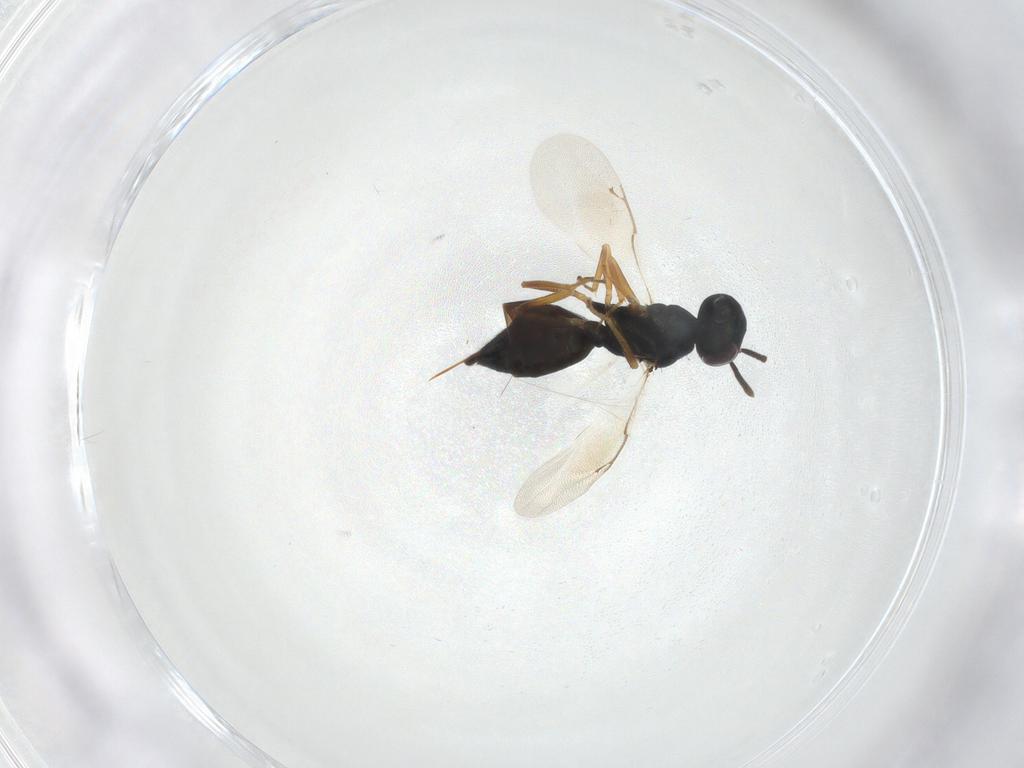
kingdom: Animalia
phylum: Arthropoda
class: Insecta
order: Hymenoptera
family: Pteromalidae
